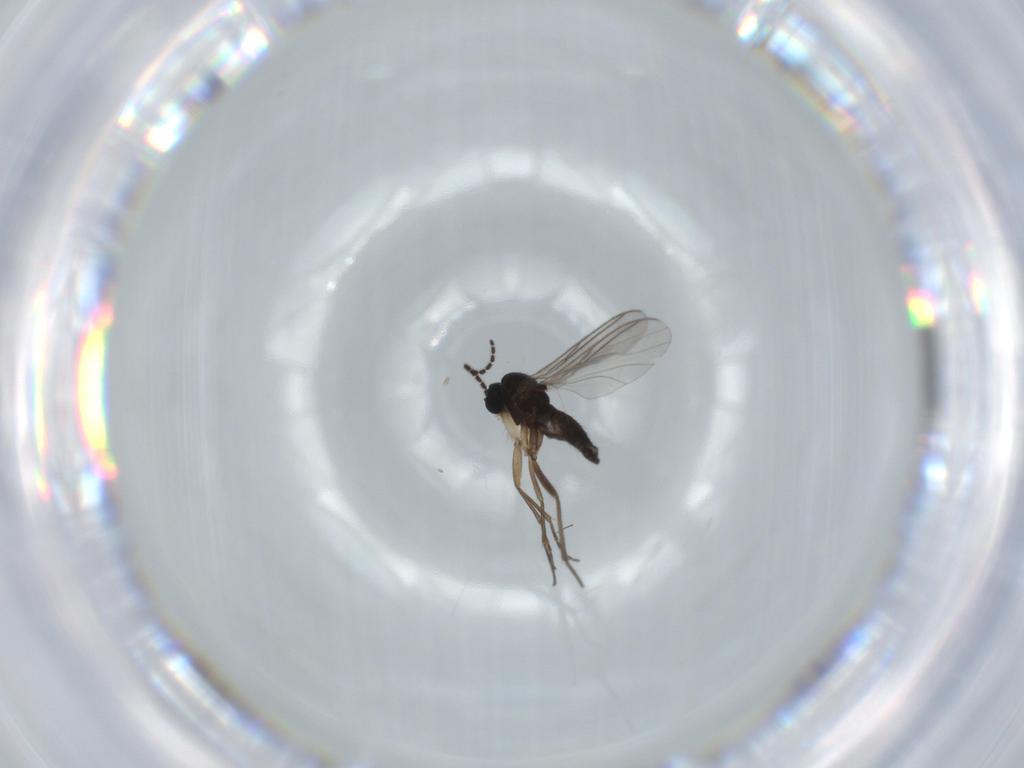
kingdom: Animalia
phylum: Arthropoda
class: Insecta
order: Diptera
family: Sciaridae
